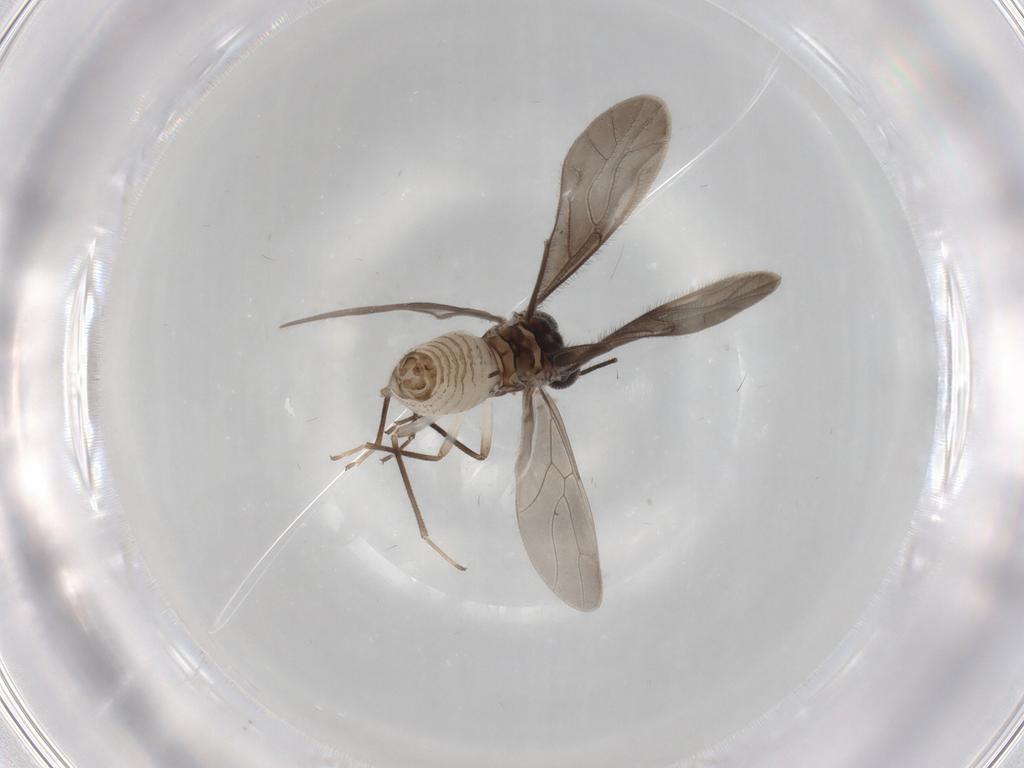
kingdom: Animalia
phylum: Arthropoda
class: Insecta
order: Psocodea
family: Caeciliusidae
